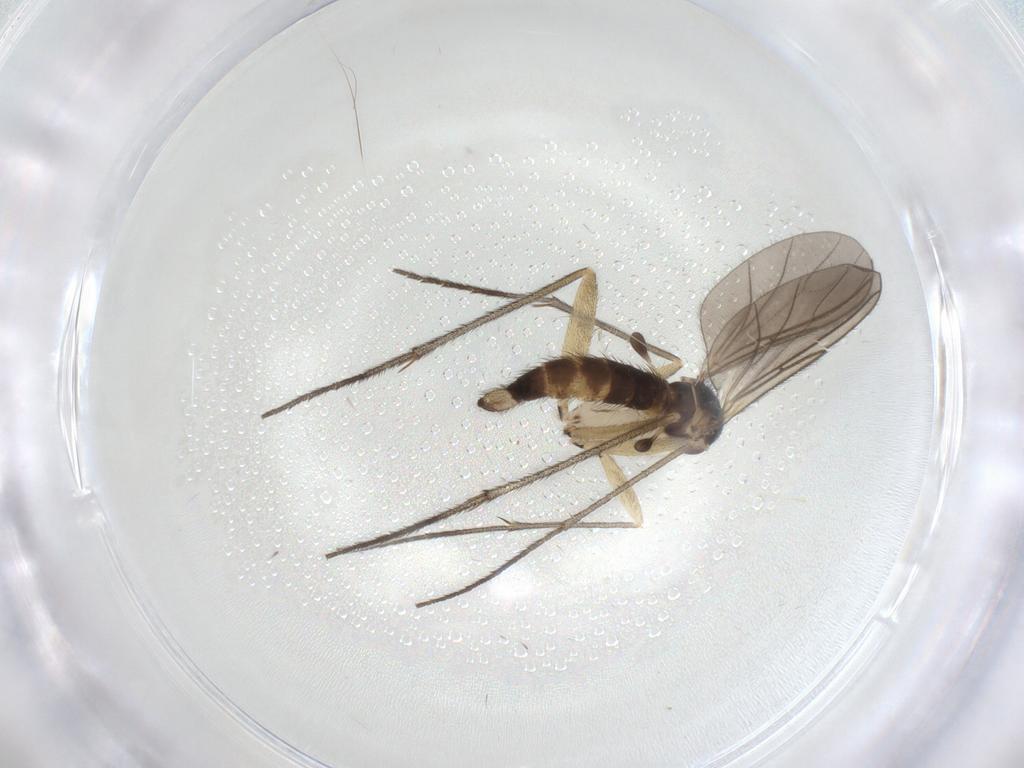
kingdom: Animalia
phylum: Arthropoda
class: Insecta
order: Diptera
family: Sciaridae
